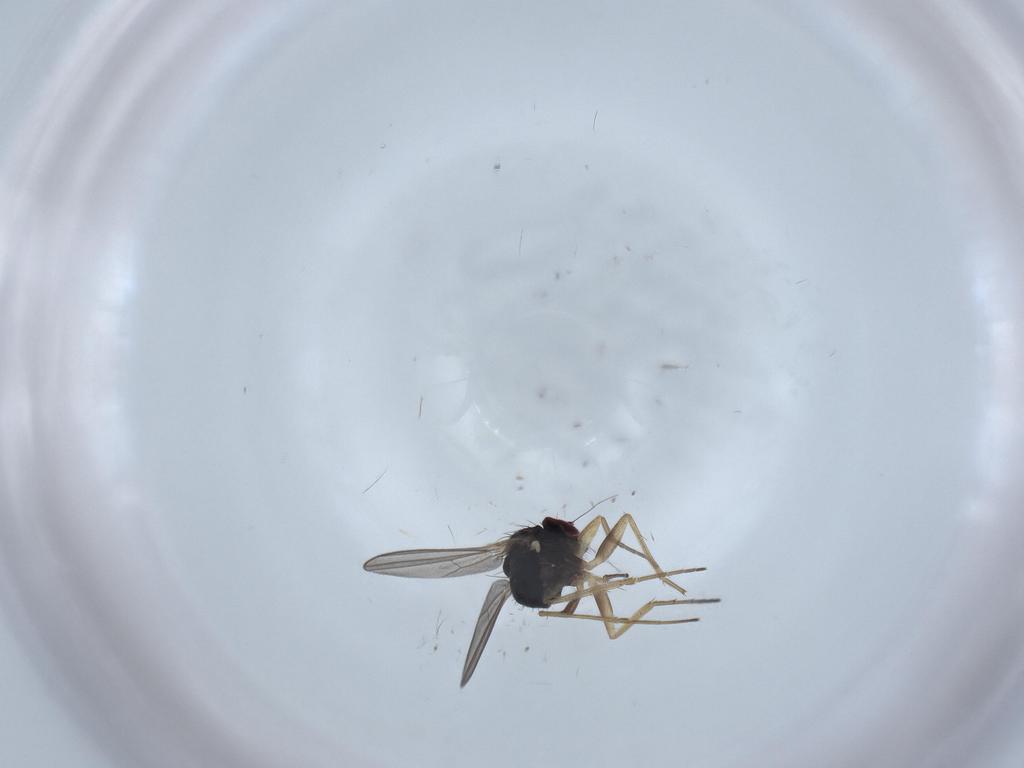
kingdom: Animalia
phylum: Arthropoda
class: Insecta
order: Diptera
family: Dolichopodidae
